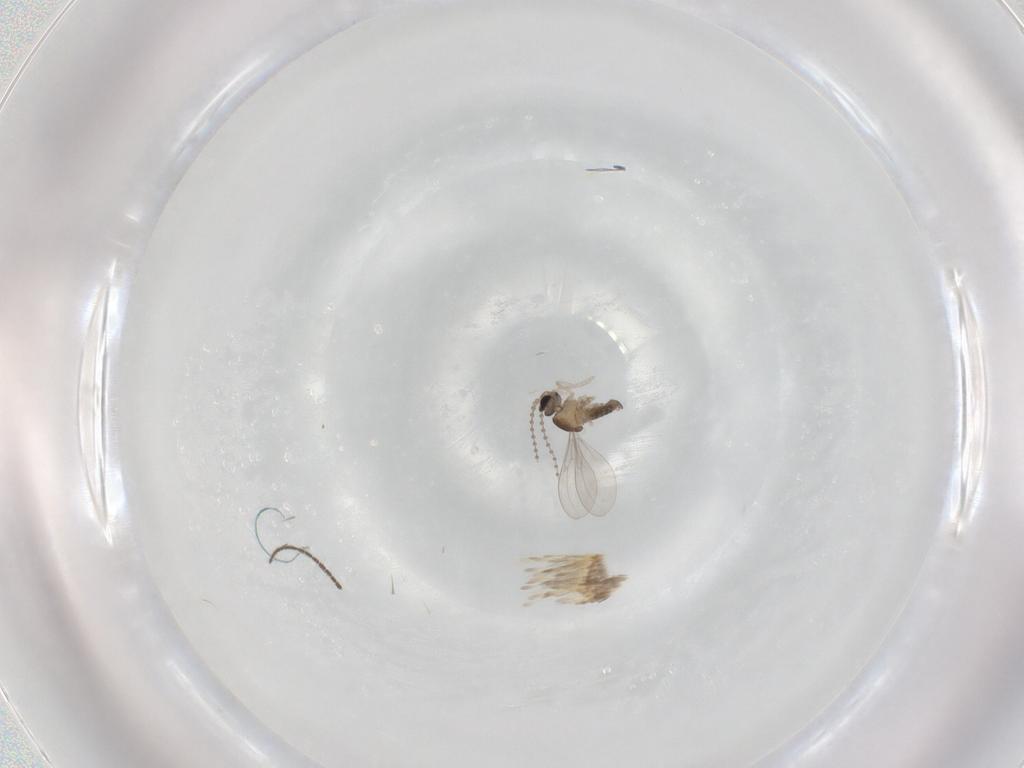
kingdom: Animalia
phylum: Arthropoda
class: Insecta
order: Diptera
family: Sciaridae
